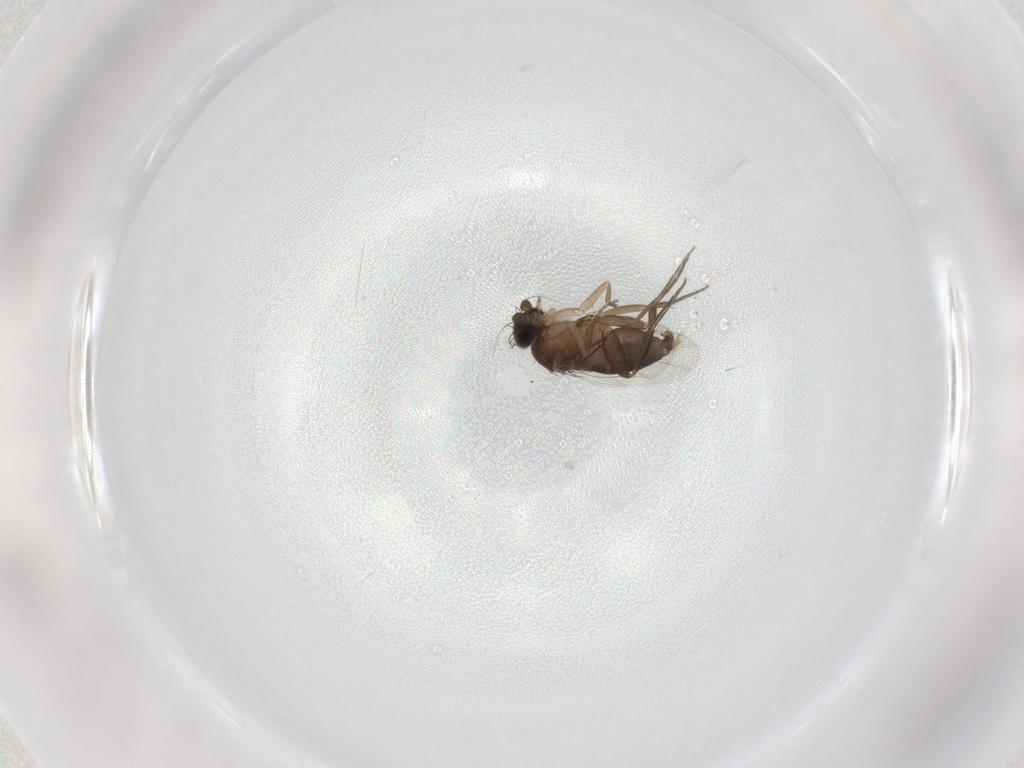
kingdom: Animalia
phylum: Arthropoda
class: Insecta
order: Diptera
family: Phoridae
